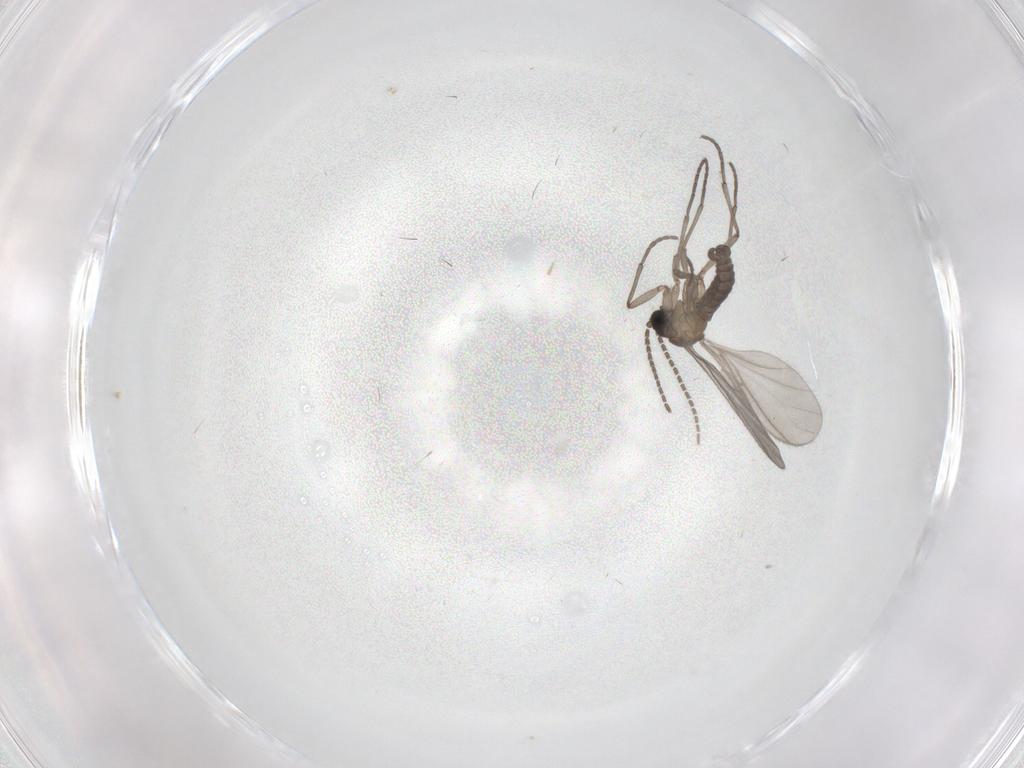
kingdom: Animalia
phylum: Arthropoda
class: Insecta
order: Diptera
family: Sciaridae
